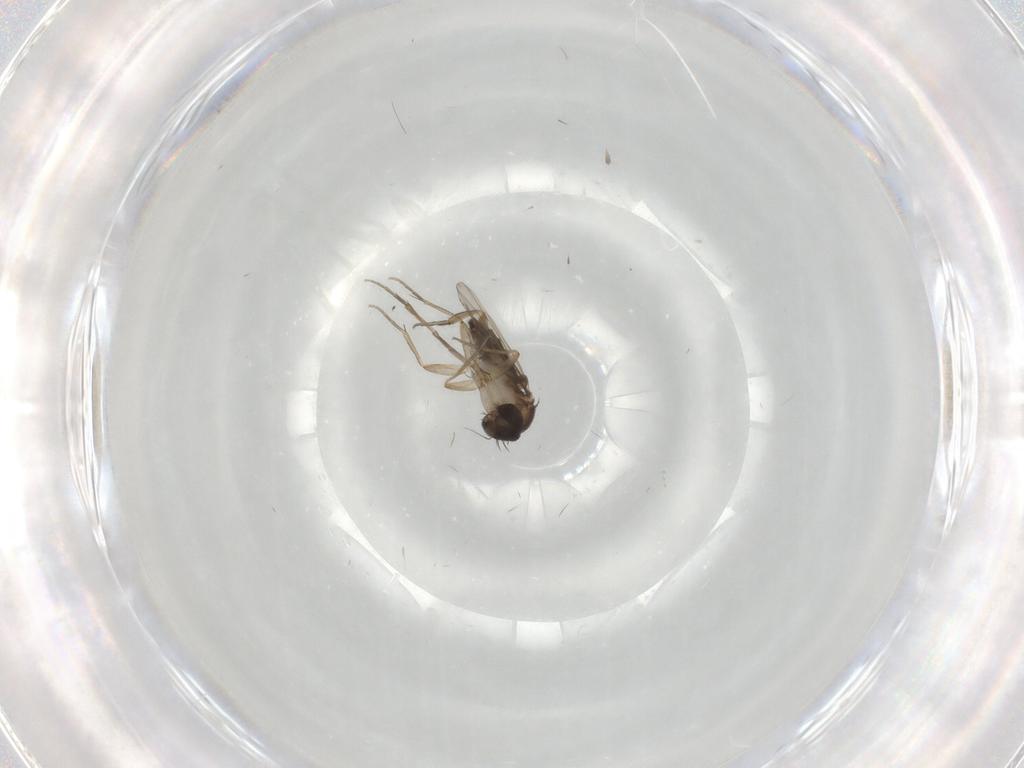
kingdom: Animalia
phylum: Arthropoda
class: Insecta
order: Diptera
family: Phoridae
